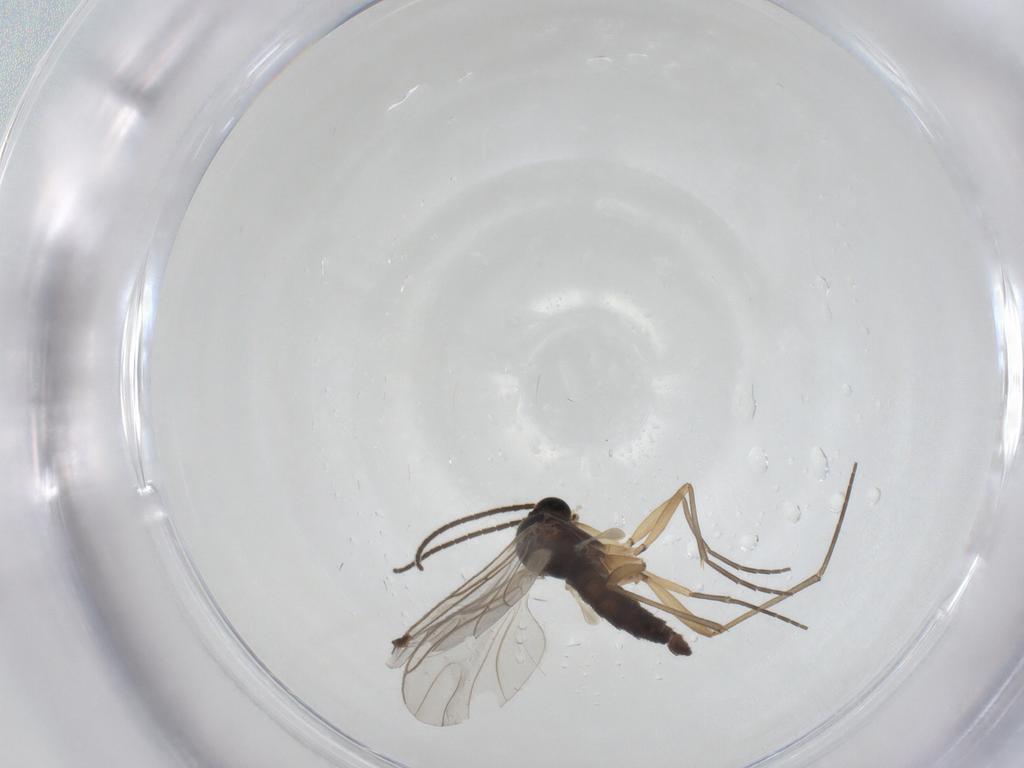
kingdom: Animalia
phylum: Arthropoda
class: Insecta
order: Diptera
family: Sciaridae
